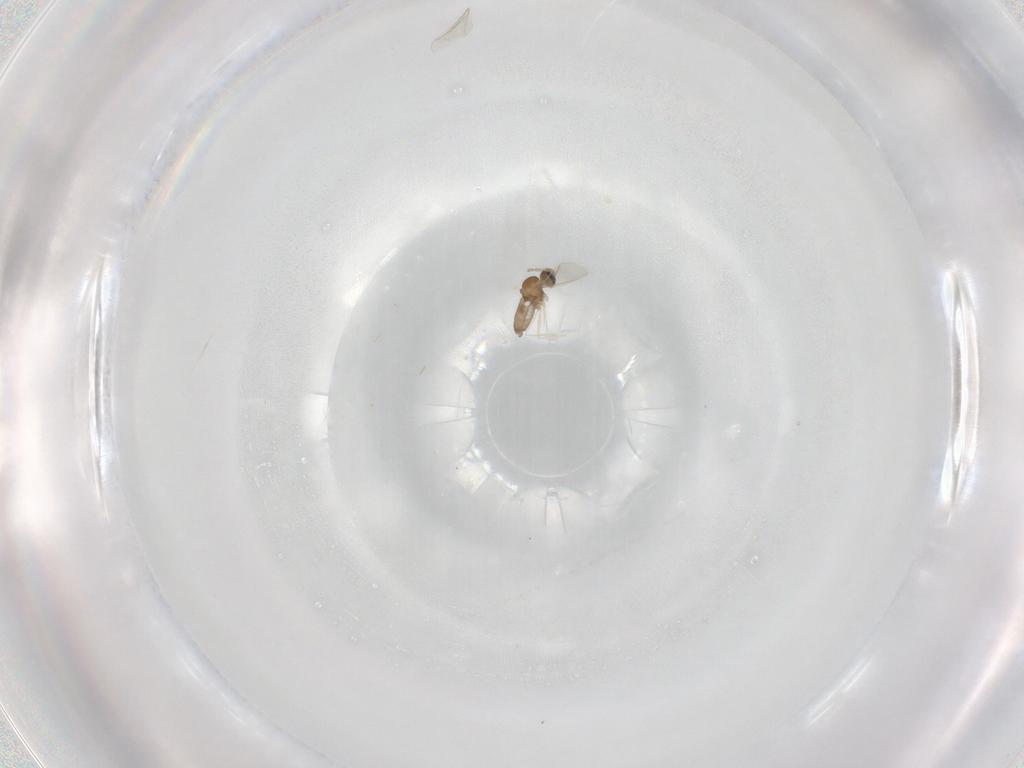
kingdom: Animalia
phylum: Arthropoda
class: Insecta
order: Diptera
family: Cecidomyiidae
